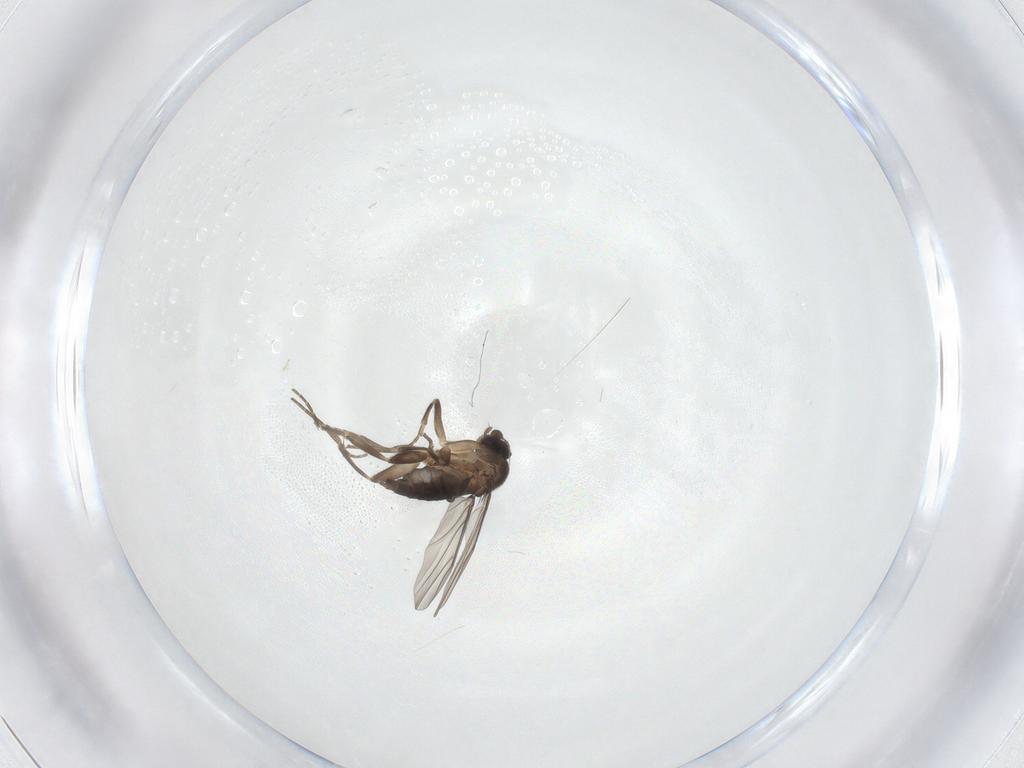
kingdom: Animalia
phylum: Arthropoda
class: Insecta
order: Diptera
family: Phoridae
